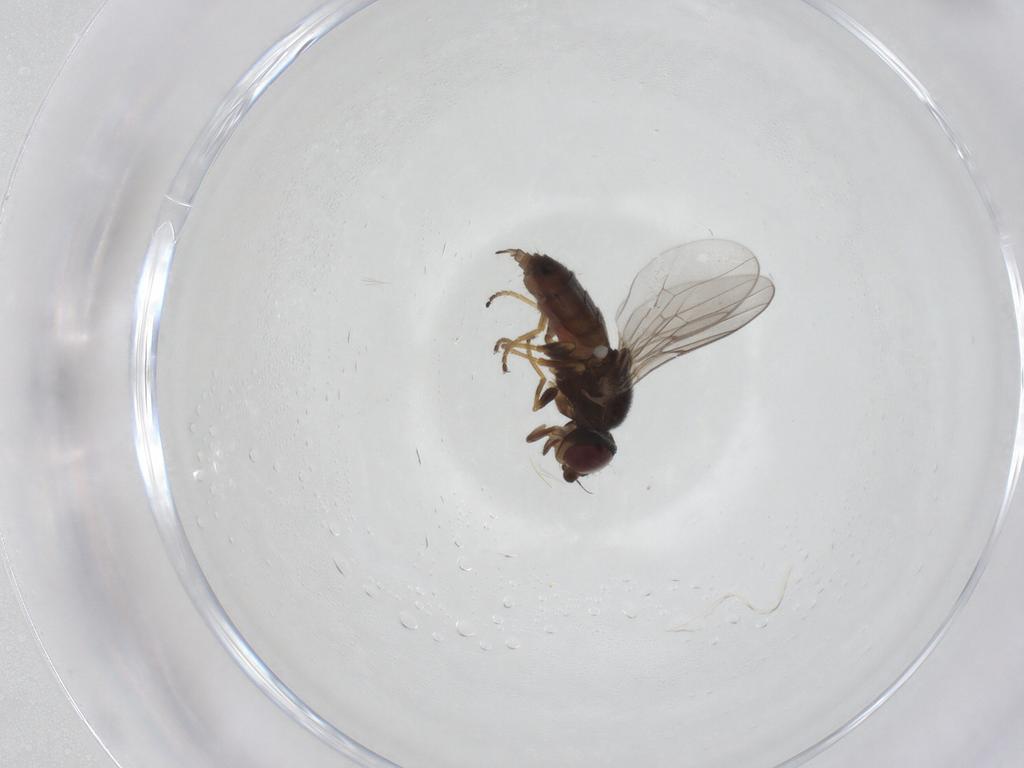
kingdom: Animalia
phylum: Arthropoda
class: Insecta
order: Diptera
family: Chloropidae
